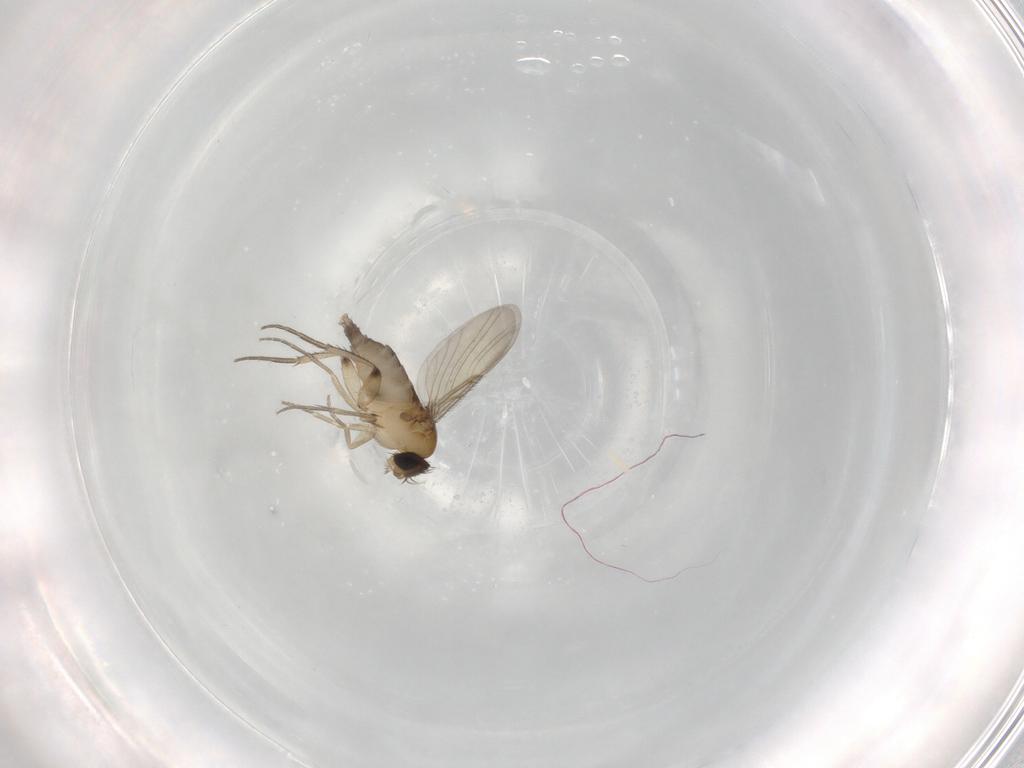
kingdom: Animalia
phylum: Arthropoda
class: Insecta
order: Diptera
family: Phoridae
